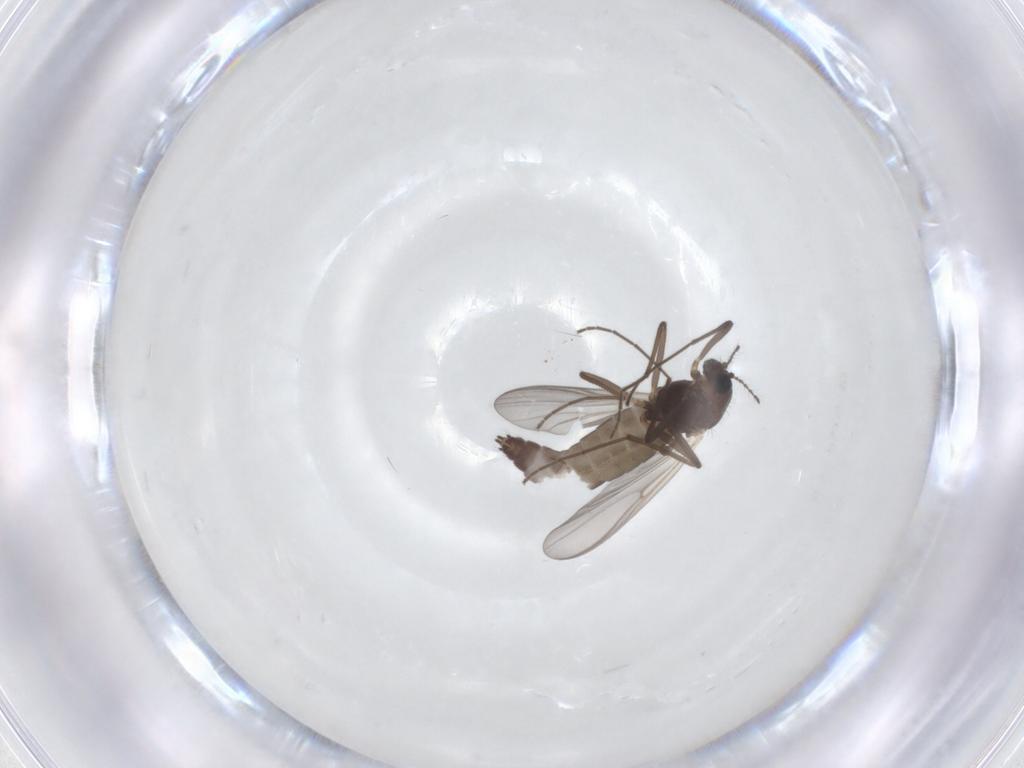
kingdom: Animalia
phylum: Arthropoda
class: Insecta
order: Diptera
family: Chironomidae
